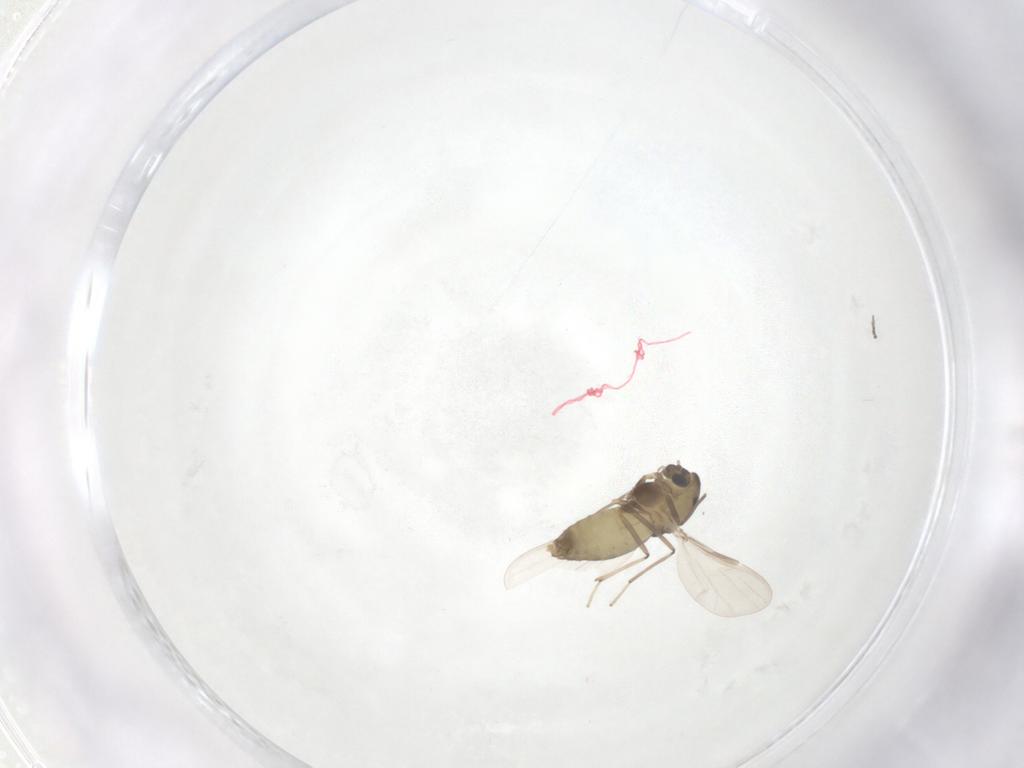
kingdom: Animalia
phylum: Arthropoda
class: Insecta
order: Diptera
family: Chironomidae
